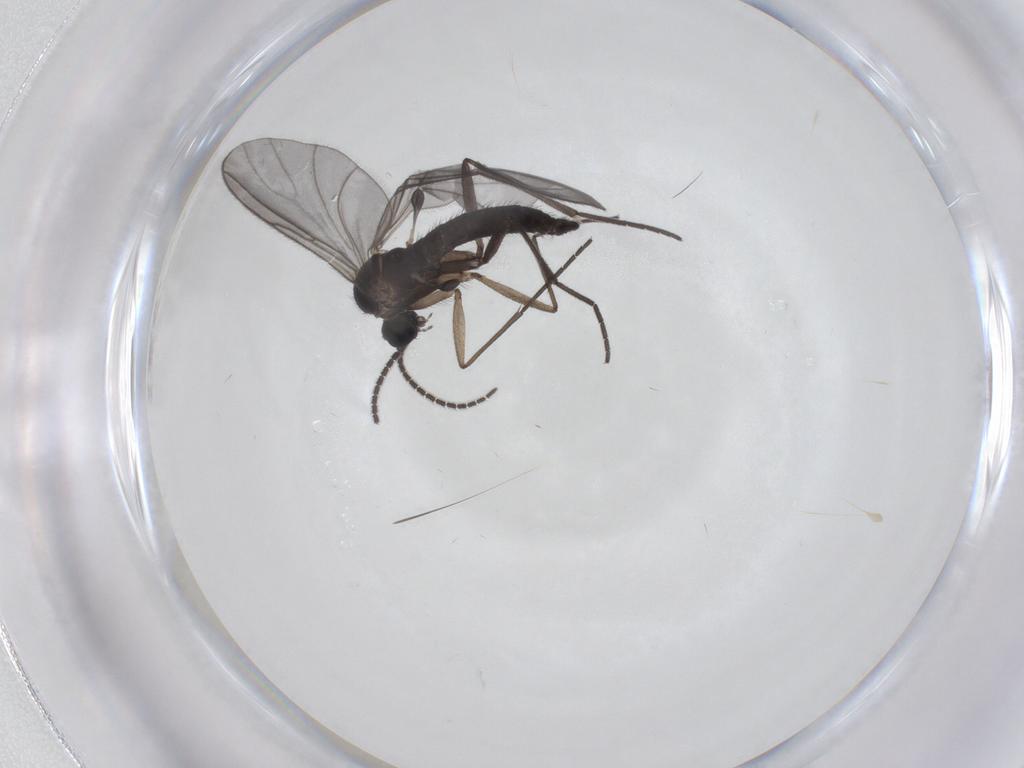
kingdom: Animalia
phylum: Arthropoda
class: Insecta
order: Diptera
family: Sciaridae
